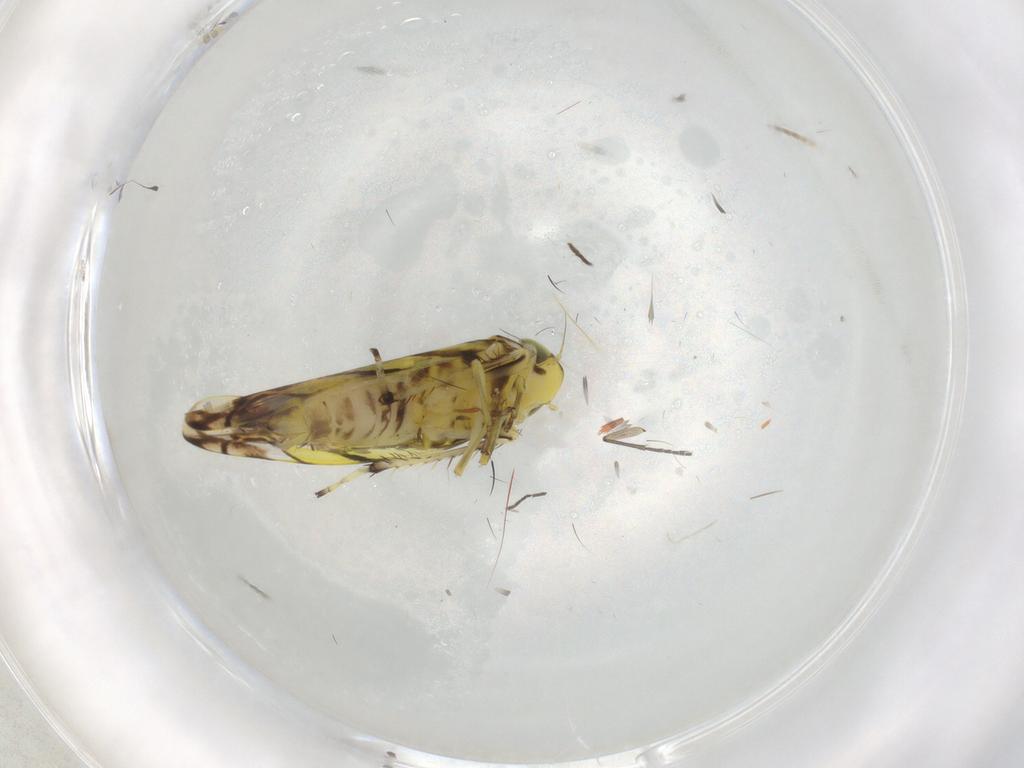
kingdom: Animalia
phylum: Arthropoda
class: Insecta
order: Hemiptera
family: Cicadellidae
